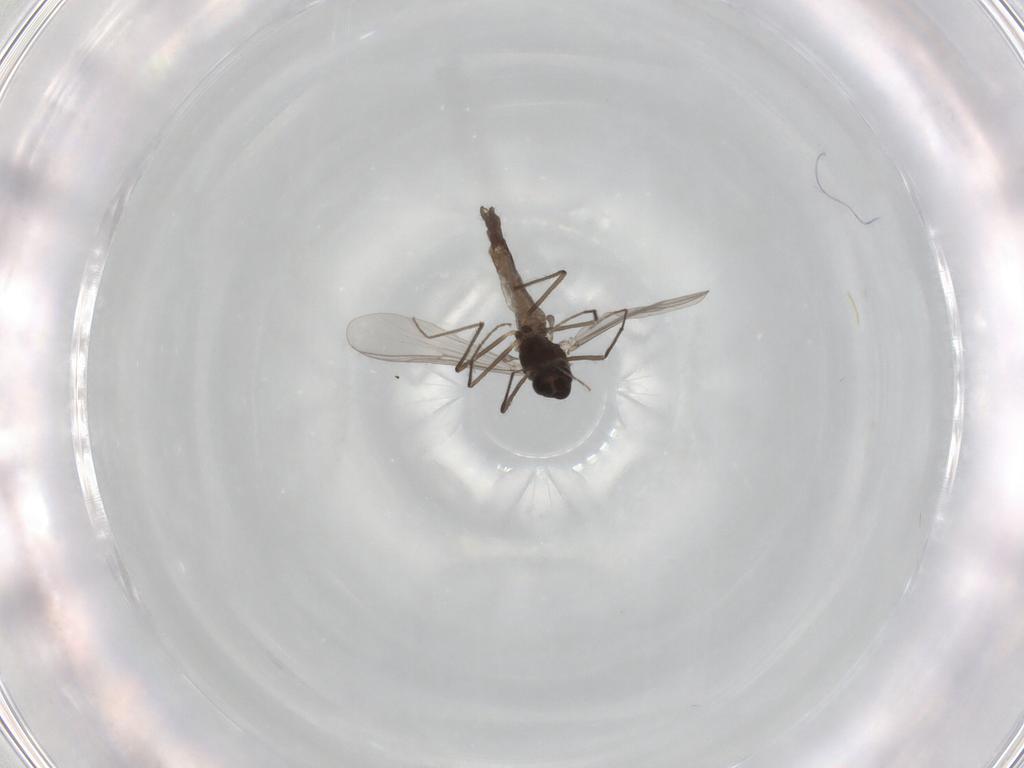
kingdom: Animalia
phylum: Arthropoda
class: Insecta
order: Diptera
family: Chironomidae
